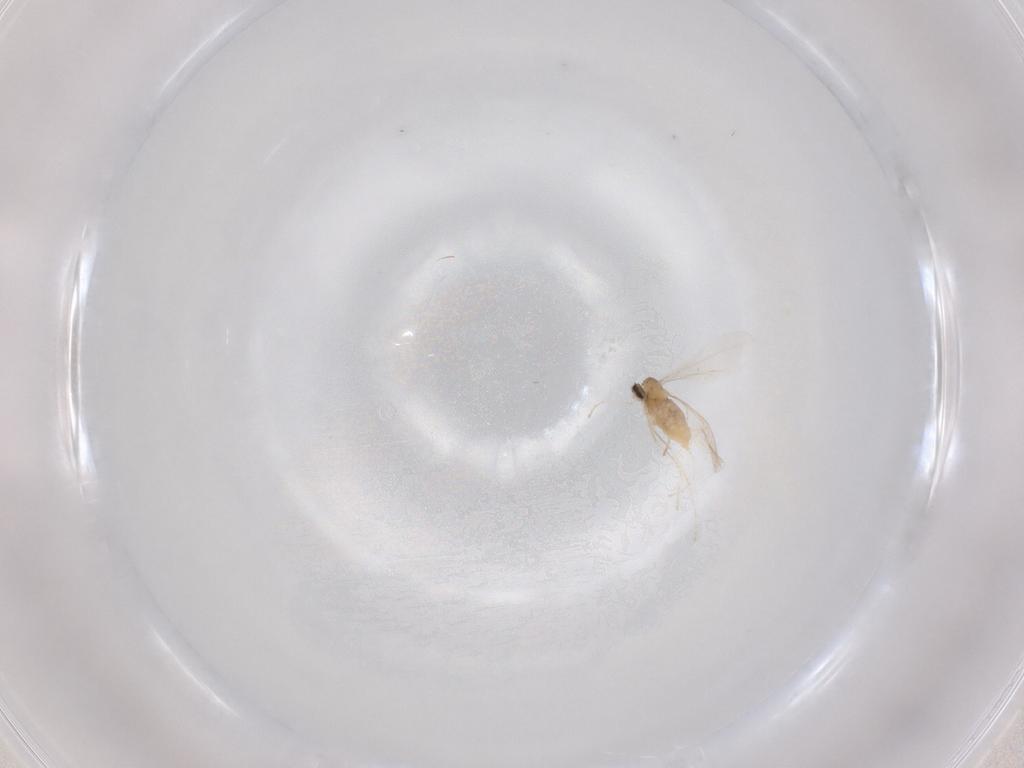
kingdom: Animalia
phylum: Arthropoda
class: Insecta
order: Diptera
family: Cecidomyiidae
